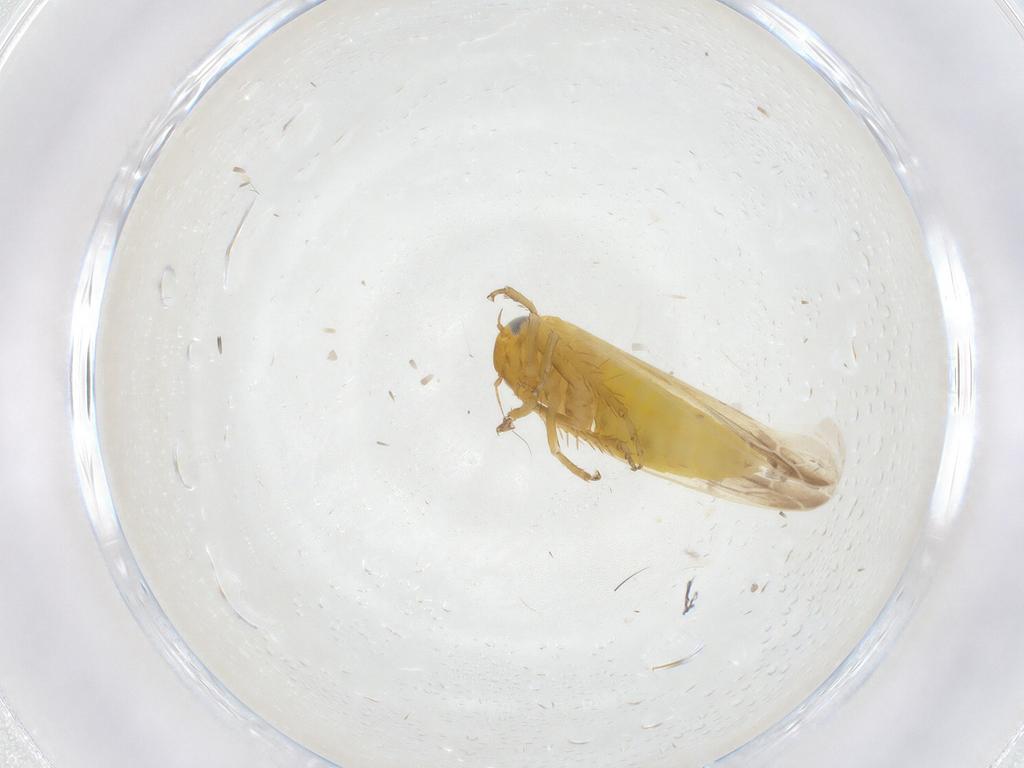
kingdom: Animalia
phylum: Arthropoda
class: Insecta
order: Hemiptera
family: Cicadellidae
